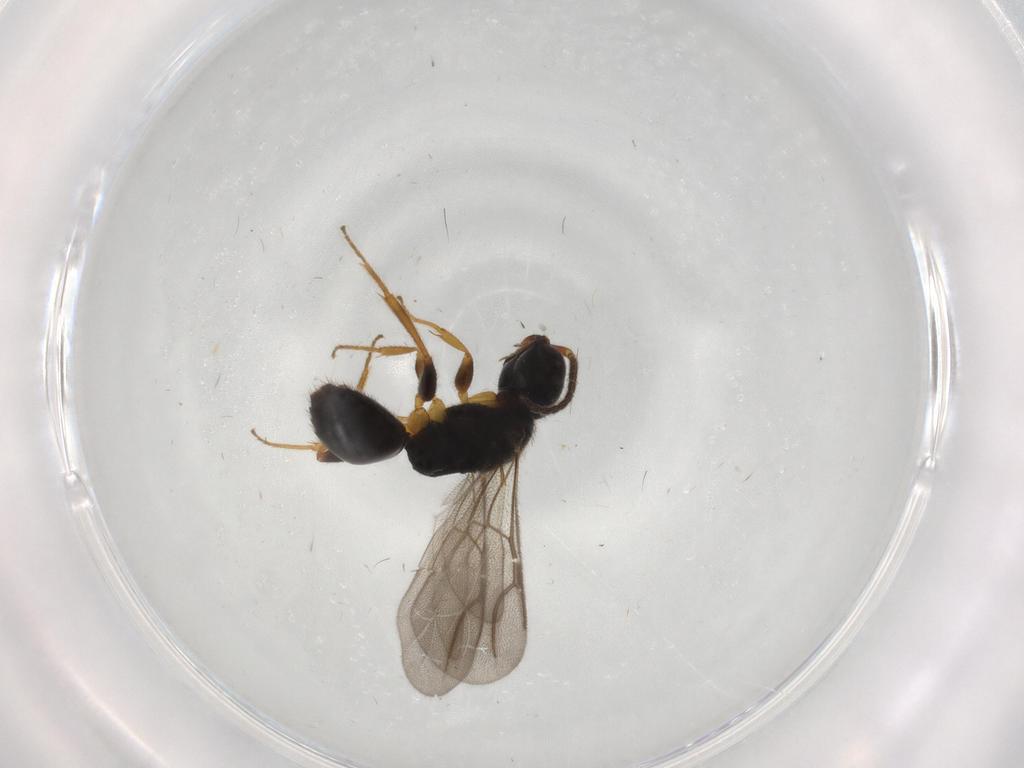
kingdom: Animalia
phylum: Arthropoda
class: Insecta
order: Hymenoptera
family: Bethylidae
